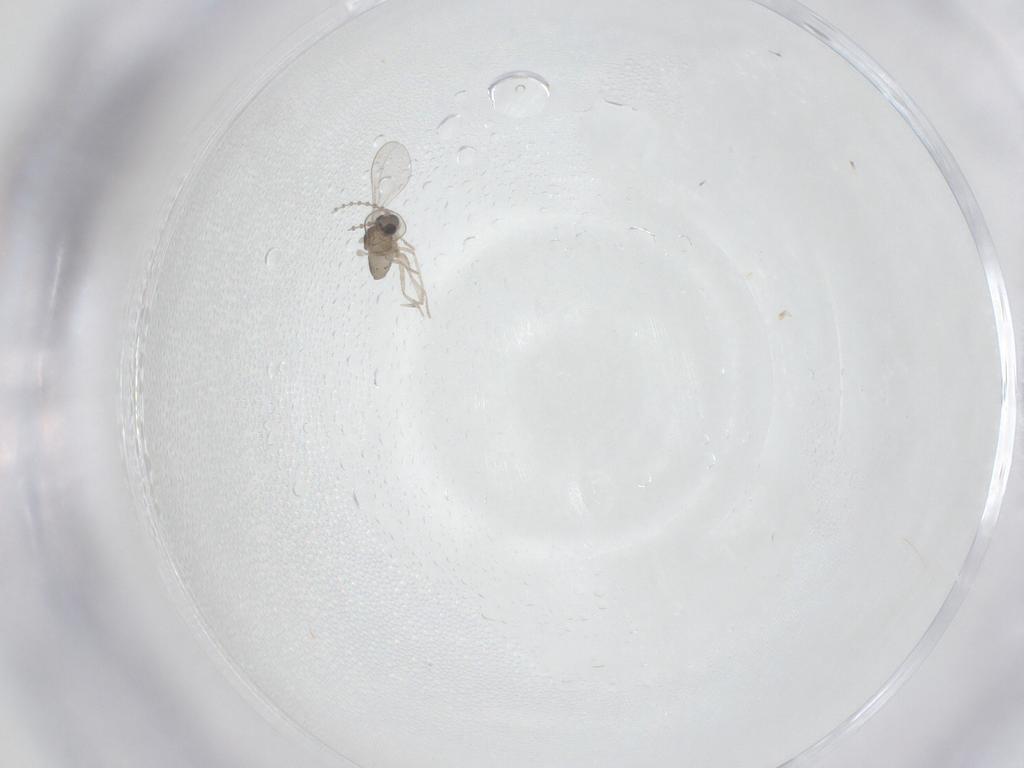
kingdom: Animalia
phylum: Arthropoda
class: Insecta
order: Diptera
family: Cecidomyiidae
